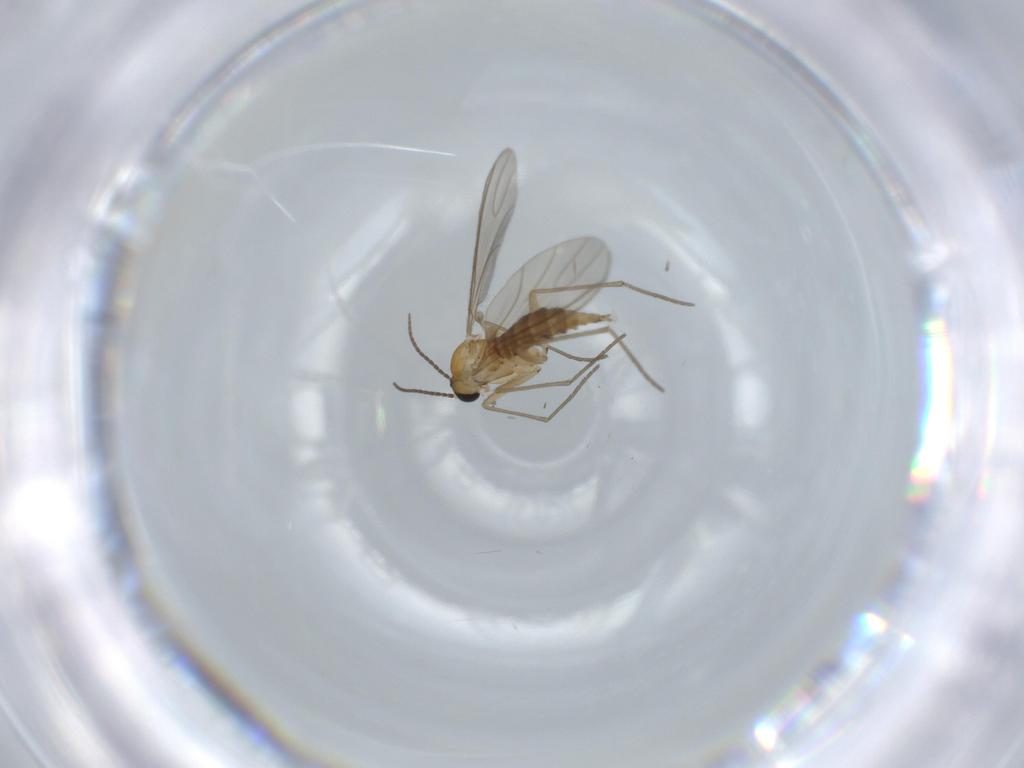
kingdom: Animalia
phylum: Arthropoda
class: Insecta
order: Diptera
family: Sciaridae
